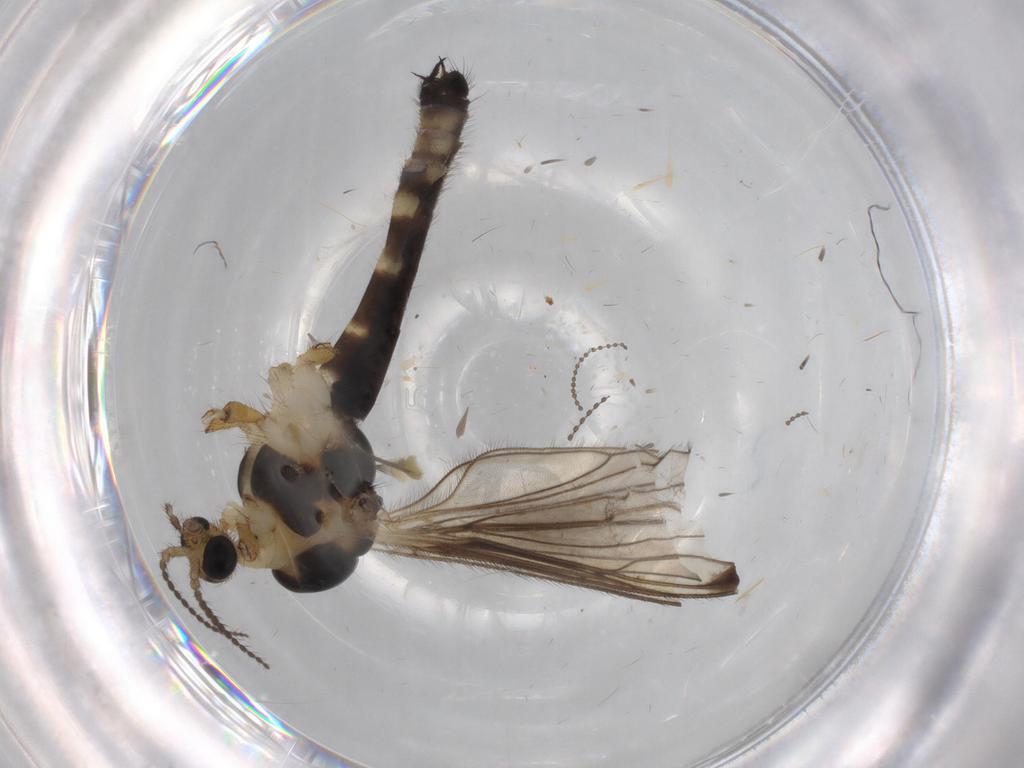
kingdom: Animalia
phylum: Arthropoda
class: Insecta
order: Diptera
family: Phoridae
